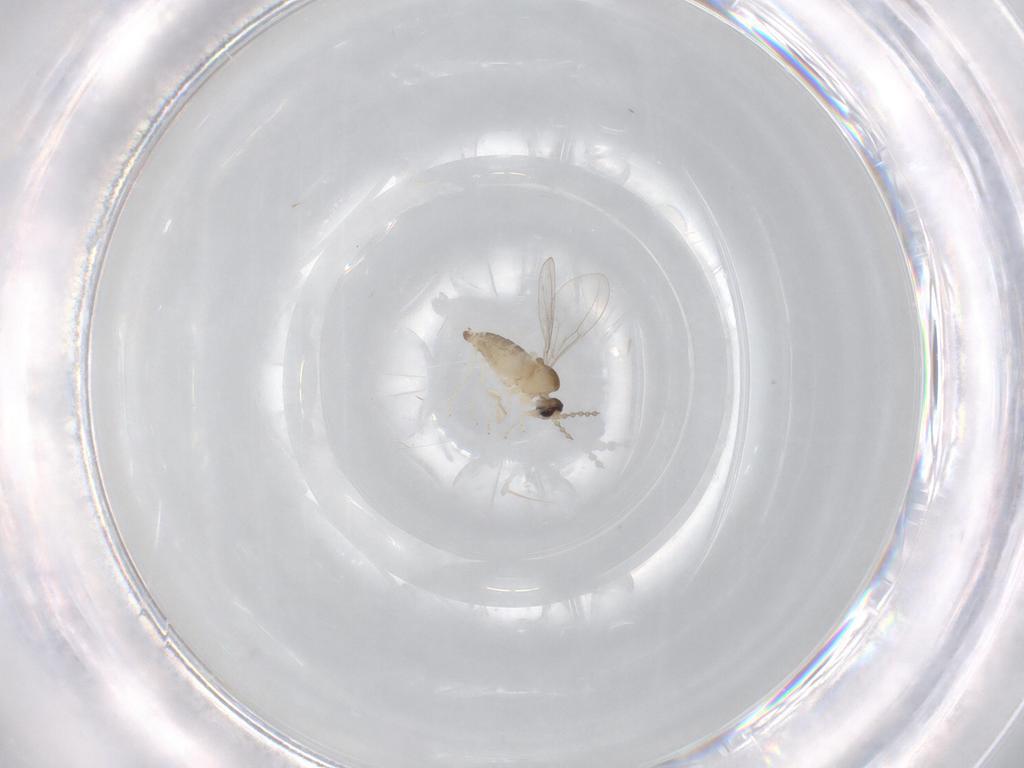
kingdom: Animalia
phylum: Arthropoda
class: Insecta
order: Diptera
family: Cecidomyiidae
